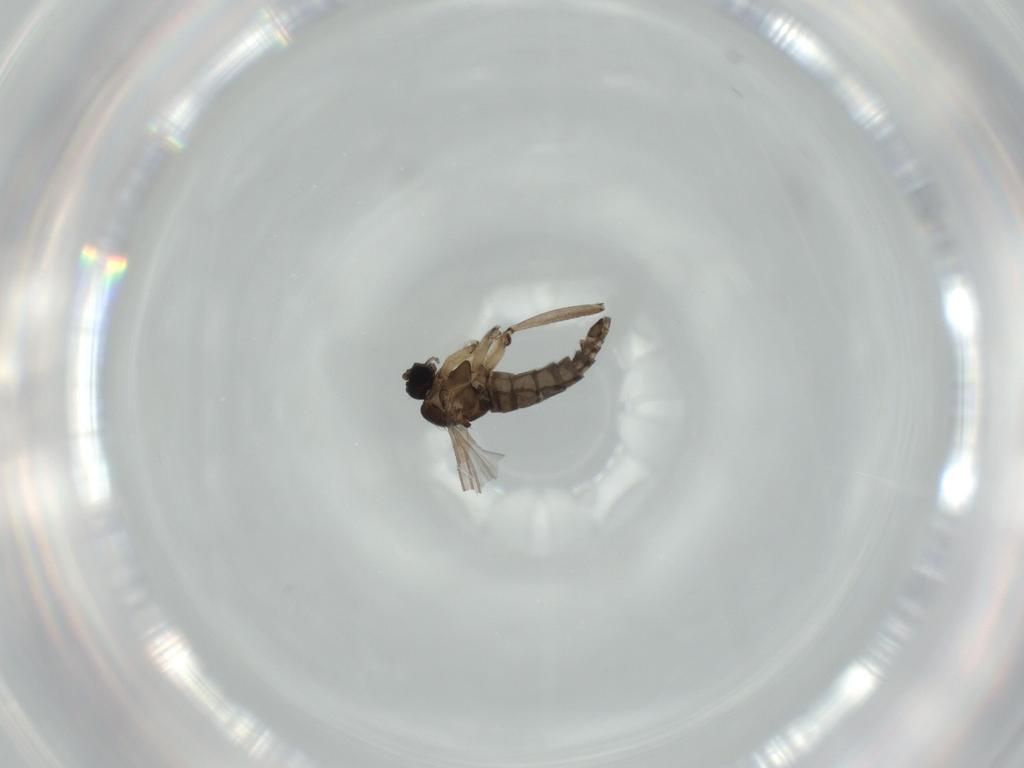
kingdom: Animalia
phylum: Arthropoda
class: Insecta
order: Diptera
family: Sciaridae
